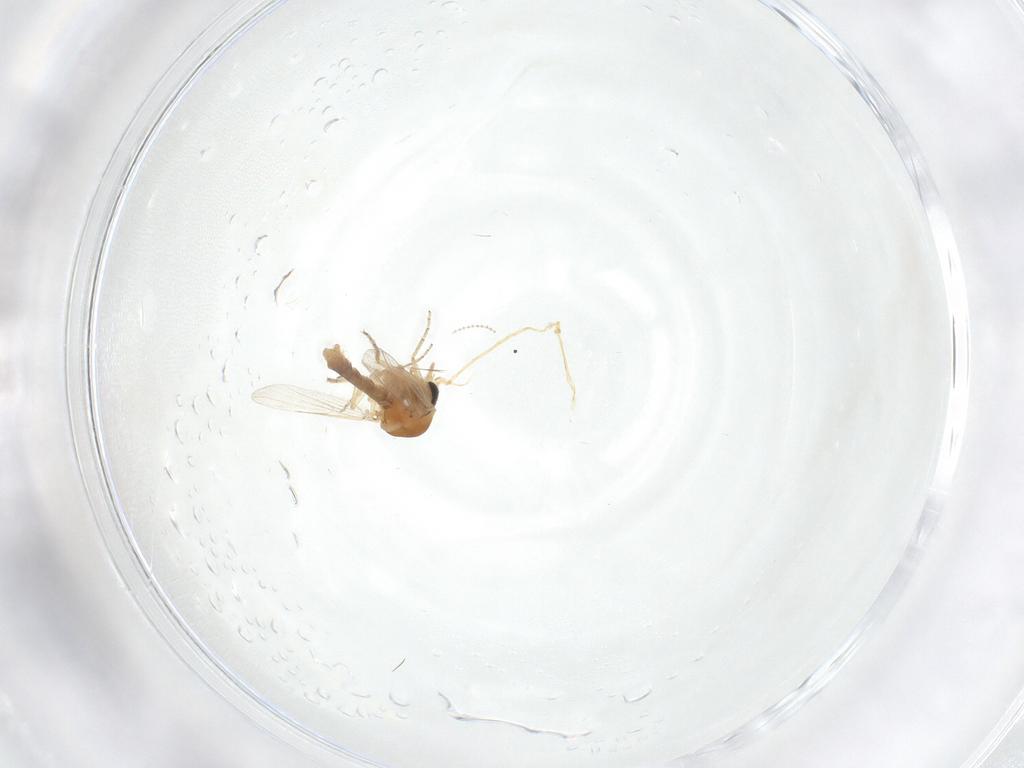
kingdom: Animalia
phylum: Arthropoda
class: Insecta
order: Diptera
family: Ceratopogonidae
